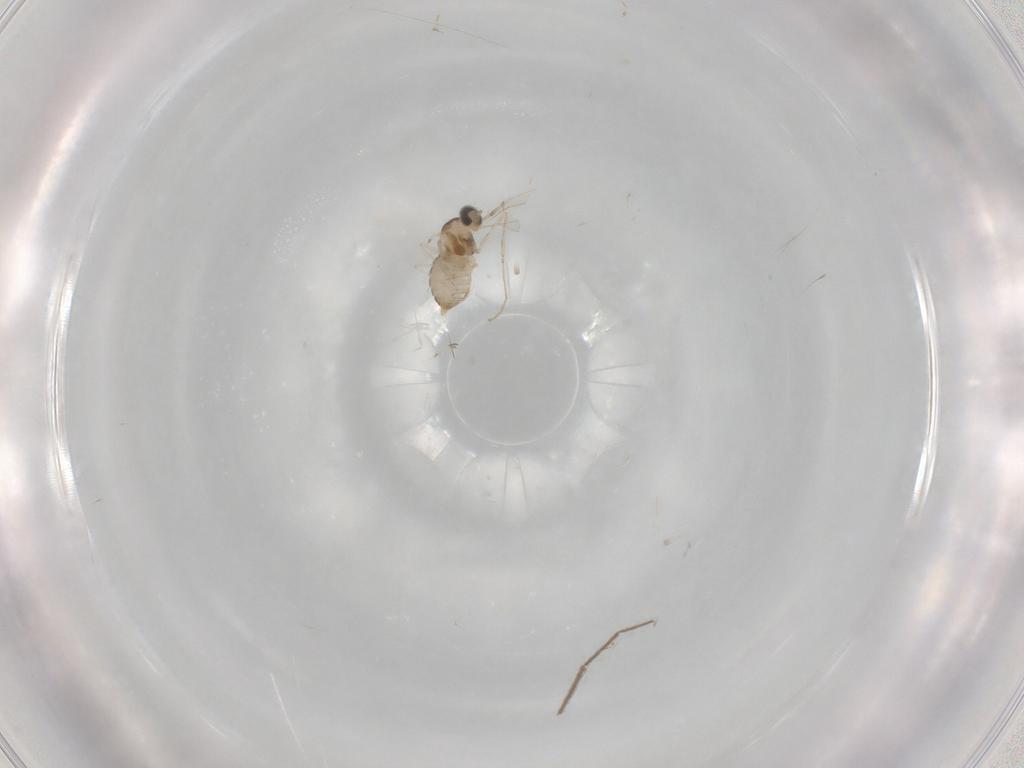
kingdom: Animalia
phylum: Arthropoda
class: Insecta
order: Diptera
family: Cecidomyiidae
